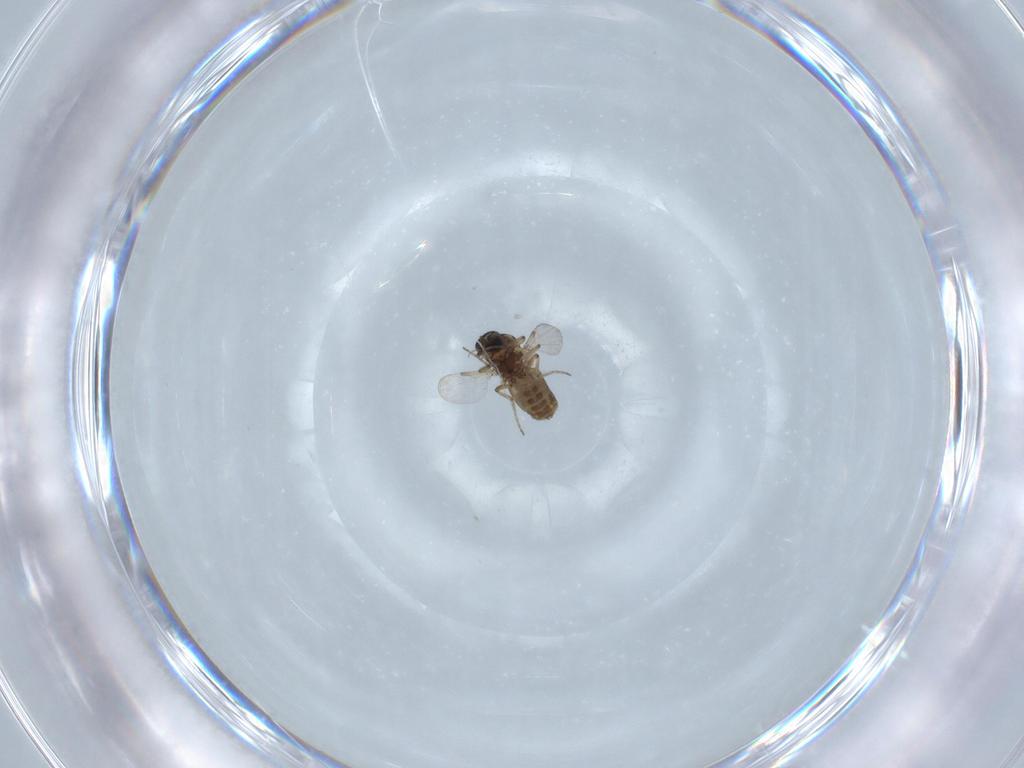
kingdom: Animalia
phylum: Arthropoda
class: Insecta
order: Diptera
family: Ceratopogonidae
